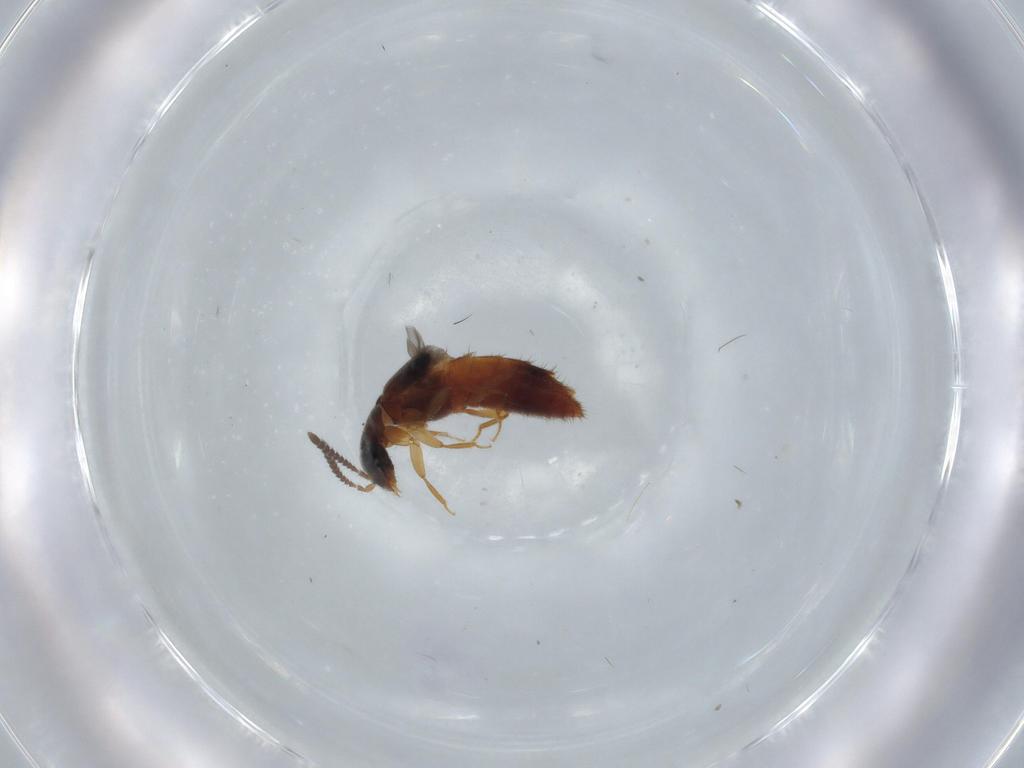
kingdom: Animalia
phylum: Arthropoda
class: Insecta
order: Coleoptera
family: Staphylinidae
